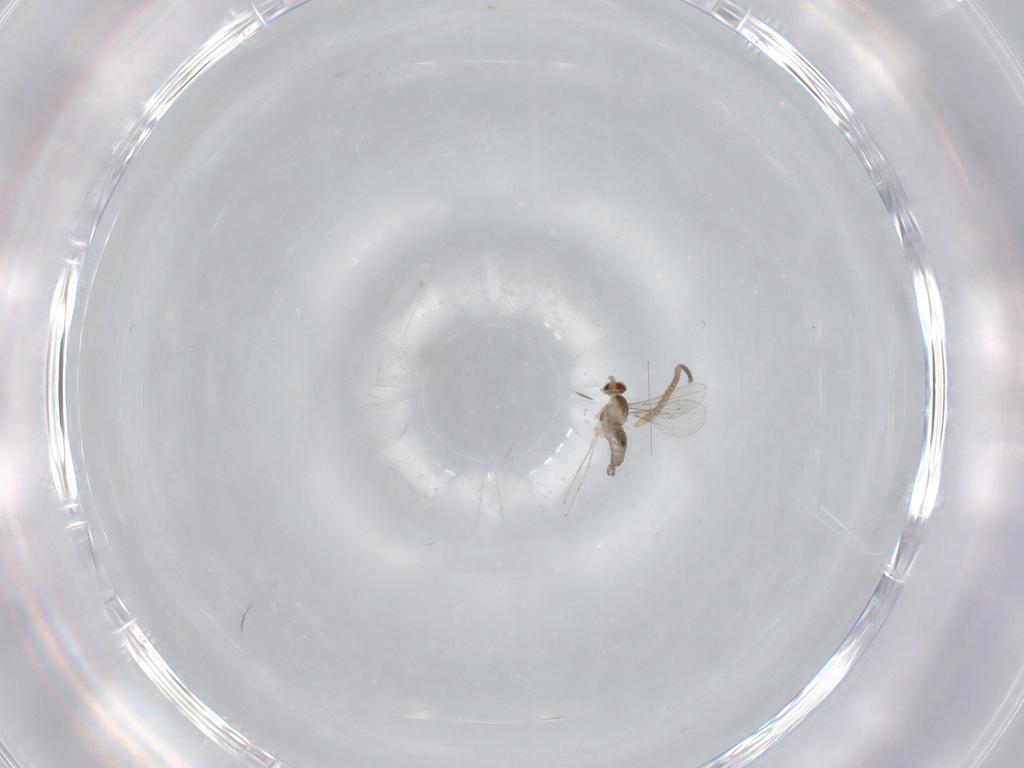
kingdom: Animalia
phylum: Arthropoda
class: Insecta
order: Diptera
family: Cecidomyiidae
